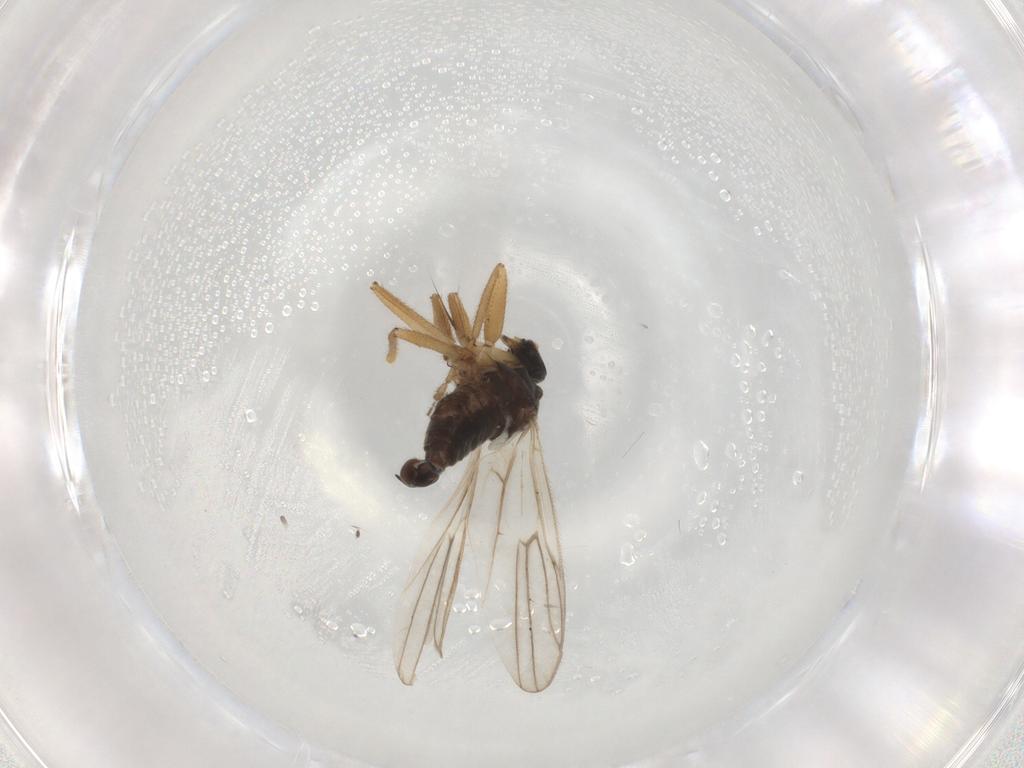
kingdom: Animalia
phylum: Arthropoda
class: Insecta
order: Diptera
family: Hybotidae
